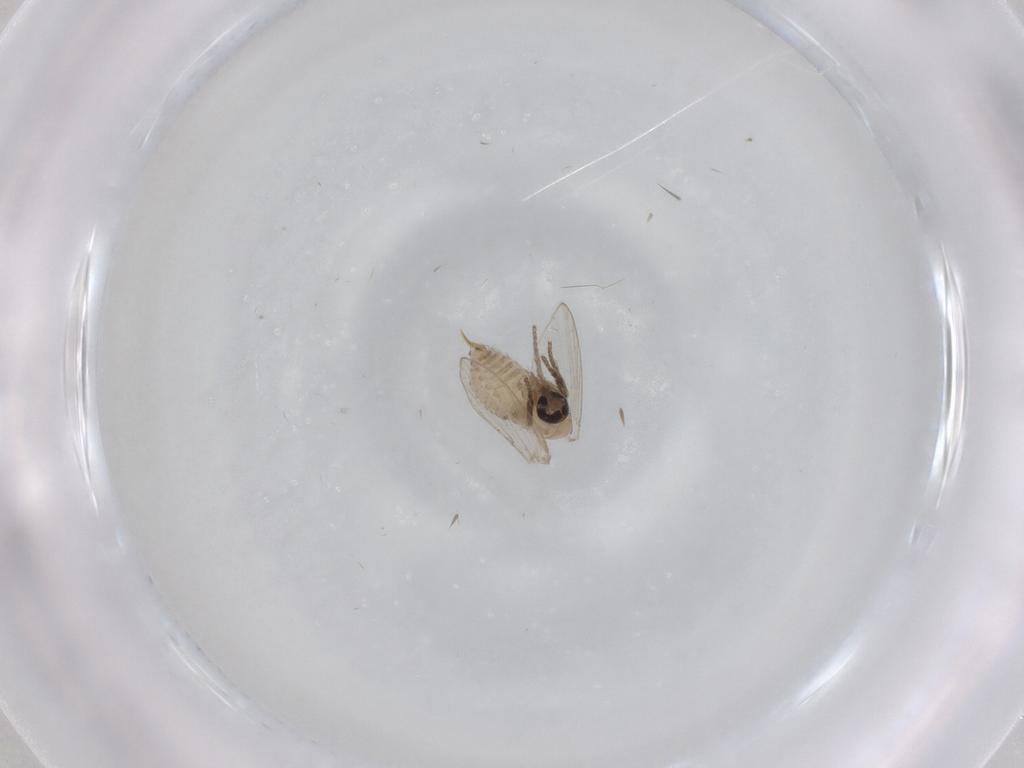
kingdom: Animalia
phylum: Arthropoda
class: Insecta
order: Diptera
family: Psychodidae
